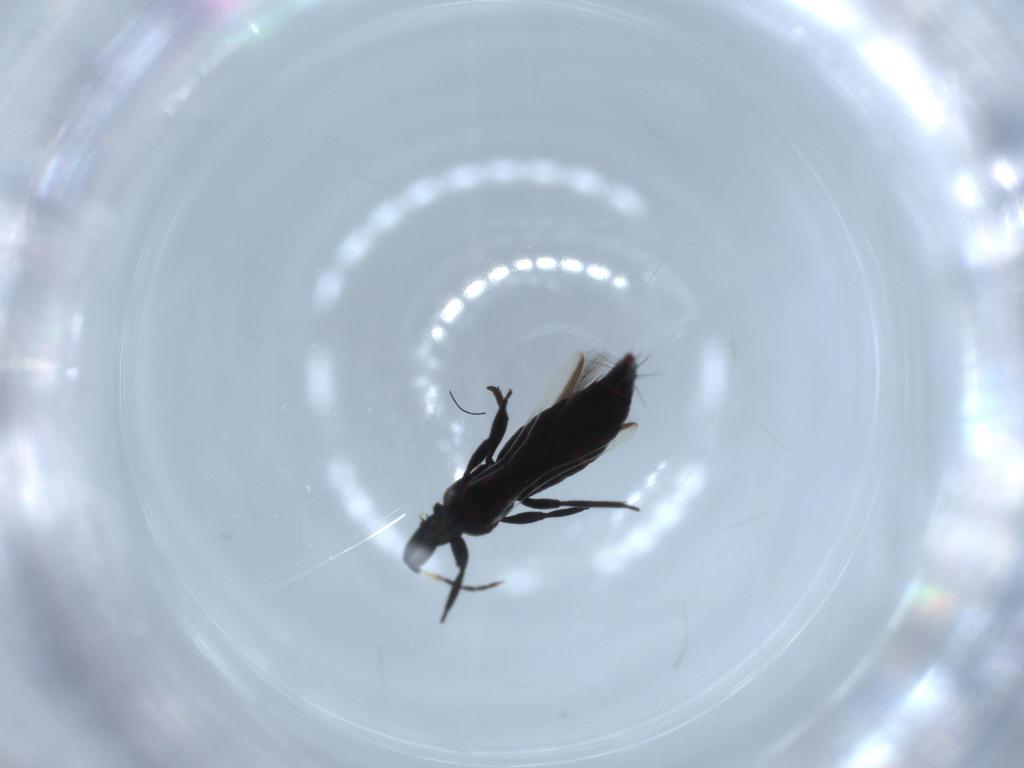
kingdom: Animalia
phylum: Arthropoda
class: Insecta
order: Thysanoptera
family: Aeolothripidae
